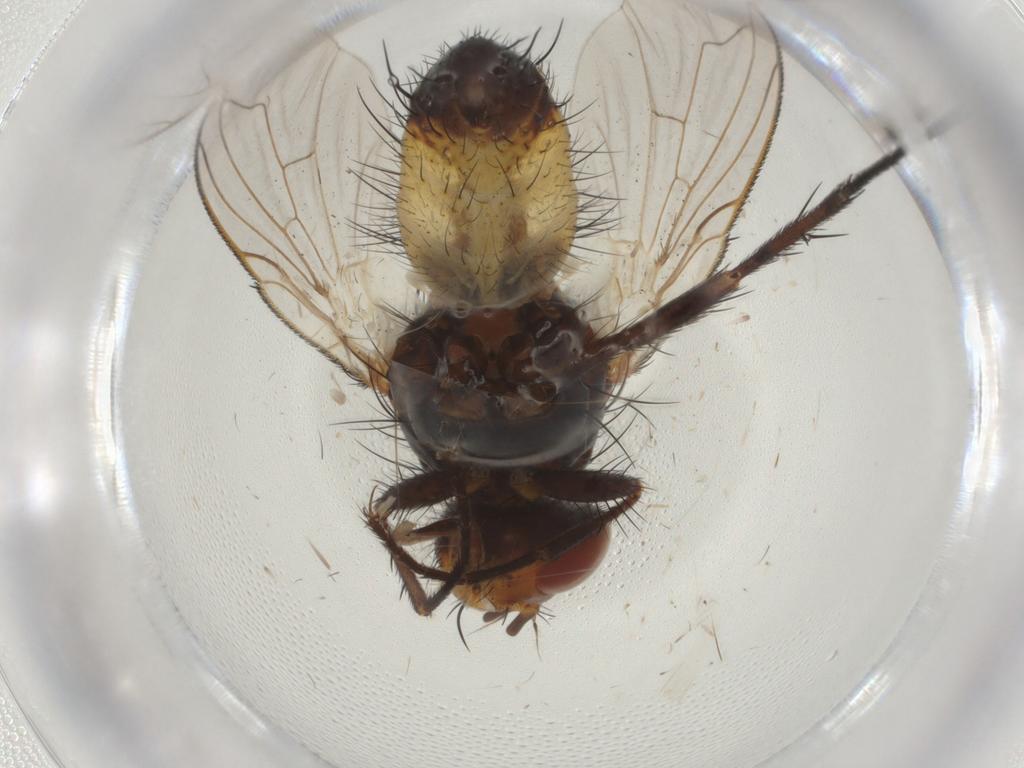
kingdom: Animalia
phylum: Arthropoda
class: Insecta
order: Diptera
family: Tachinidae
